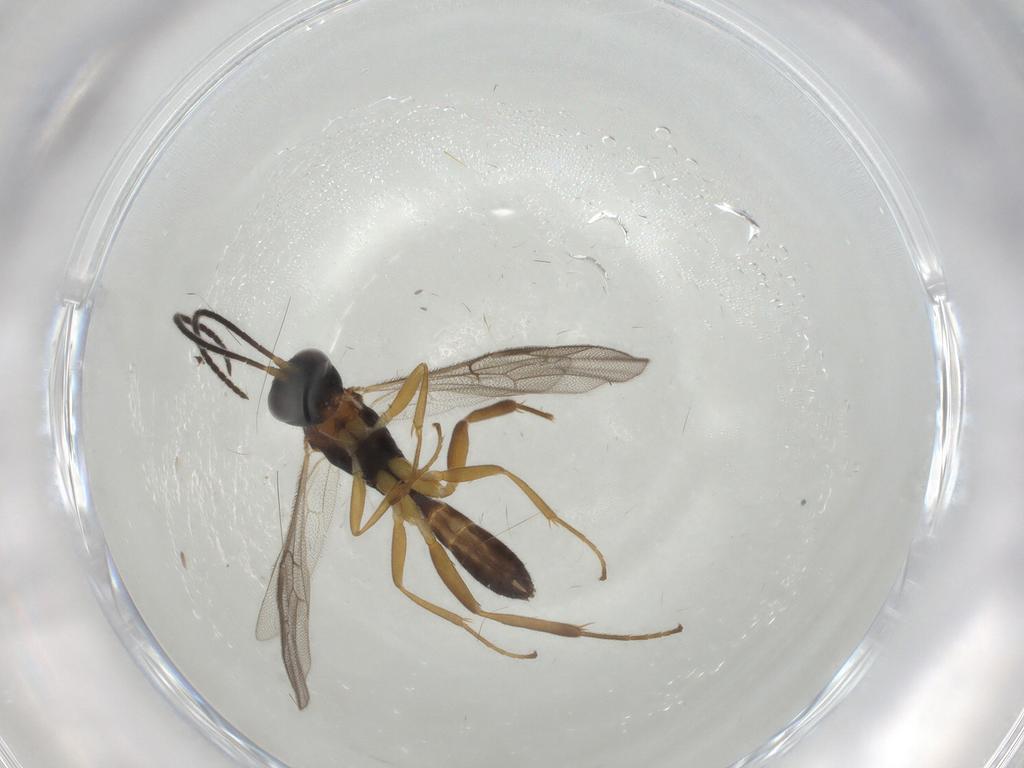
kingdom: Animalia
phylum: Arthropoda
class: Insecta
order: Hymenoptera
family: Ichneumonidae
